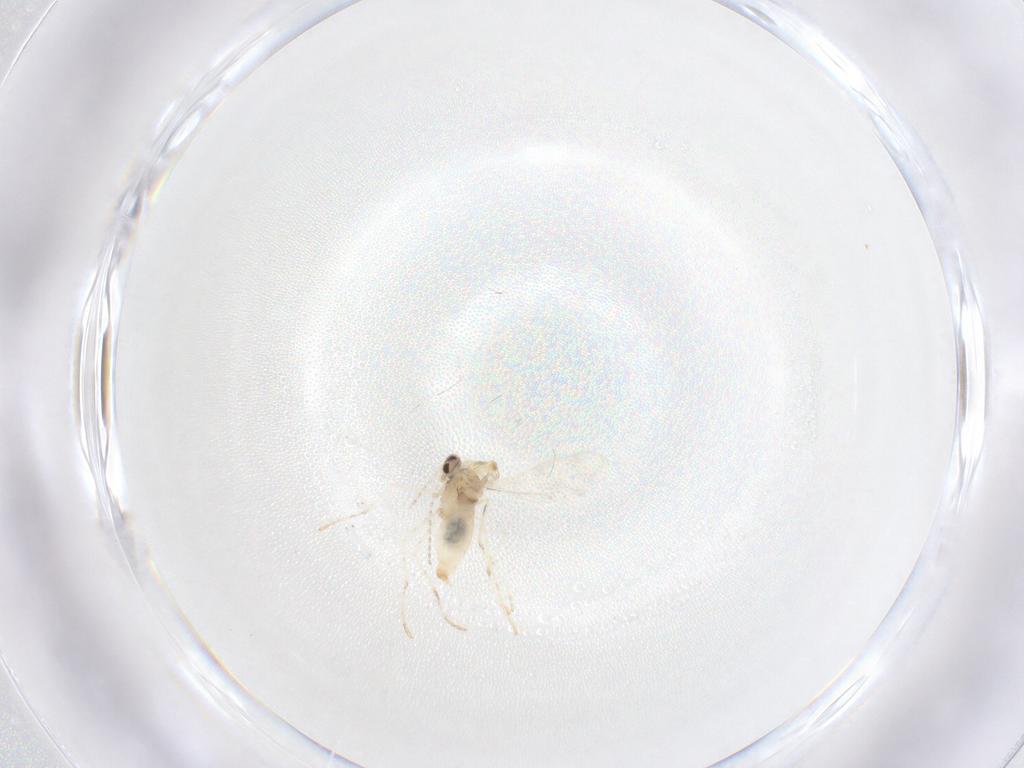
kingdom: Animalia
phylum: Arthropoda
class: Insecta
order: Diptera
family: Cecidomyiidae
